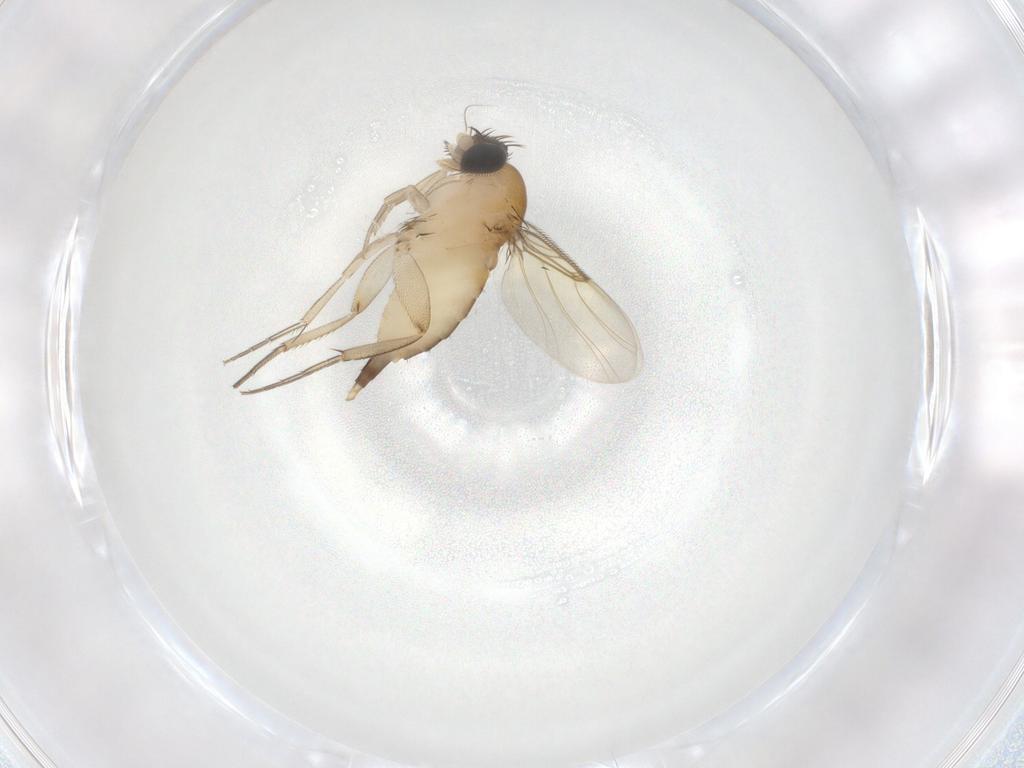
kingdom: Animalia
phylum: Arthropoda
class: Insecta
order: Diptera
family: Phoridae
